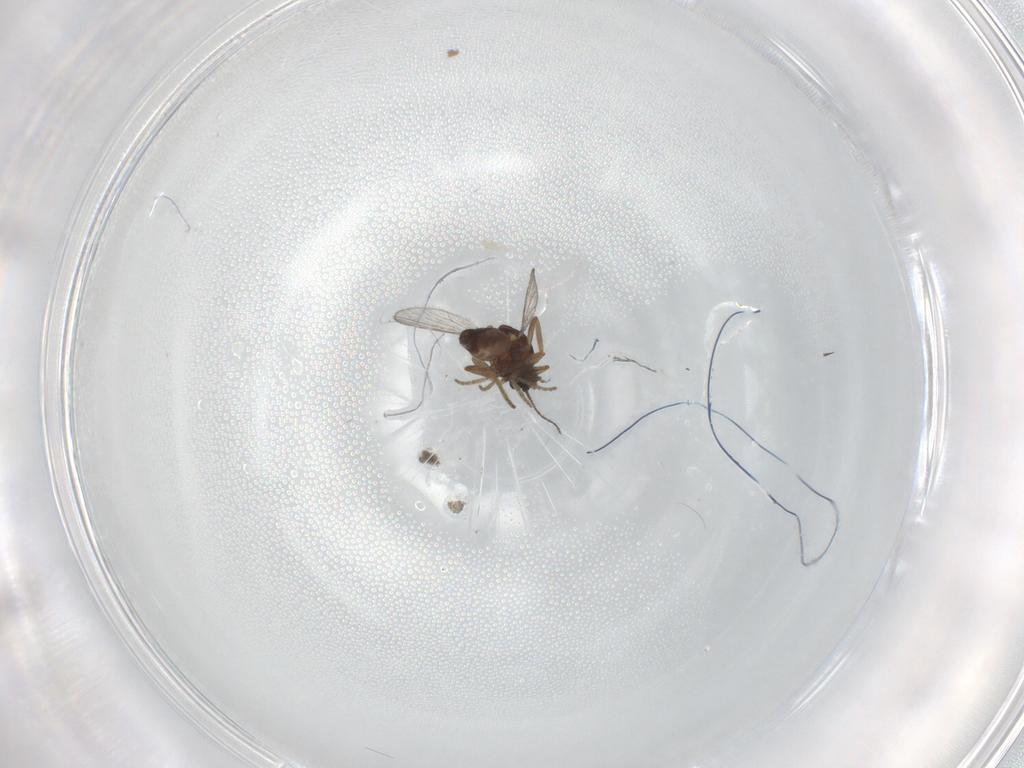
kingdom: Animalia
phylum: Arthropoda
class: Insecta
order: Diptera
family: Ceratopogonidae
